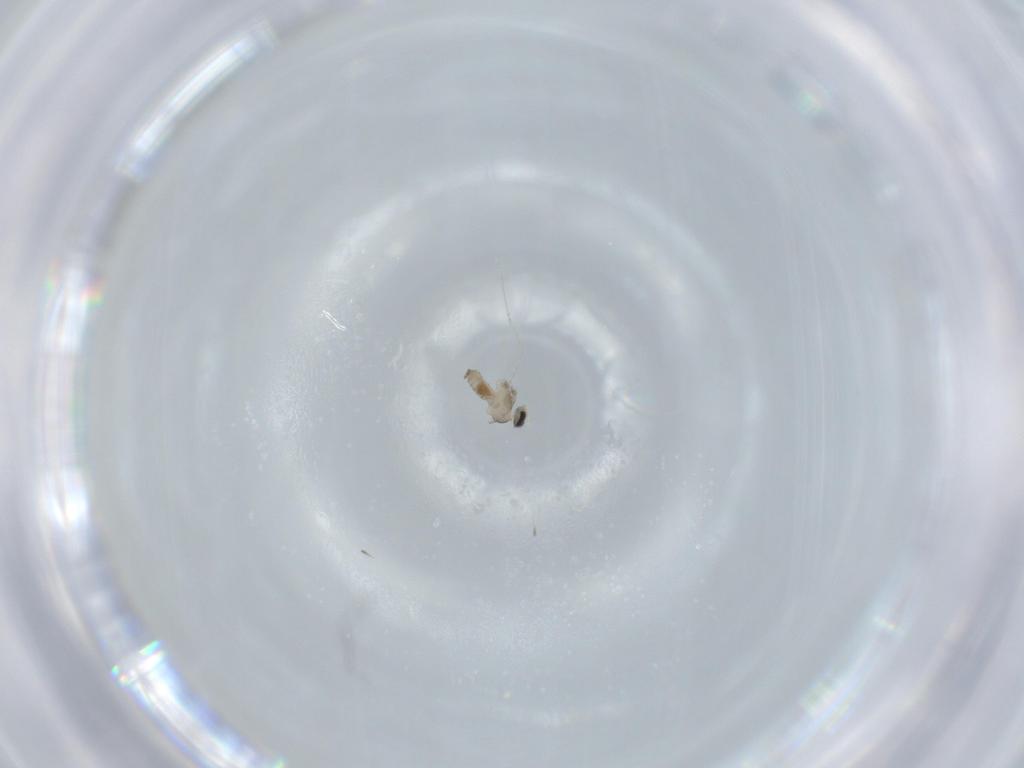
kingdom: Animalia
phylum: Arthropoda
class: Insecta
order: Diptera
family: Cecidomyiidae
